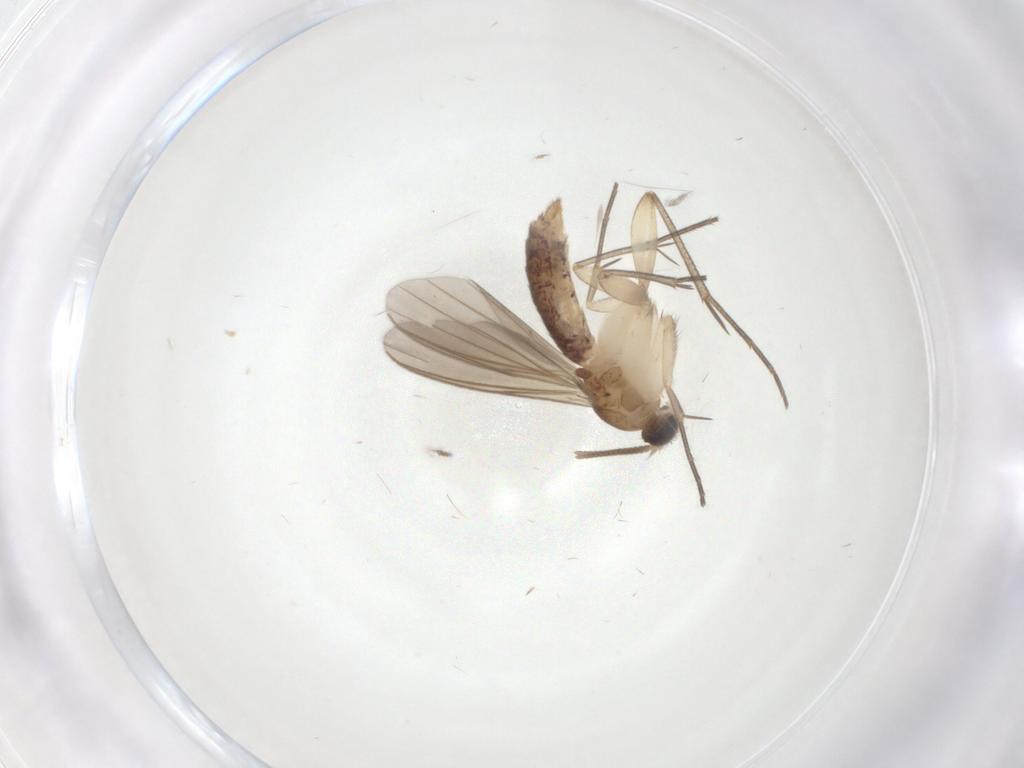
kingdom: Animalia
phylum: Arthropoda
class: Insecta
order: Diptera
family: Mycetophilidae
